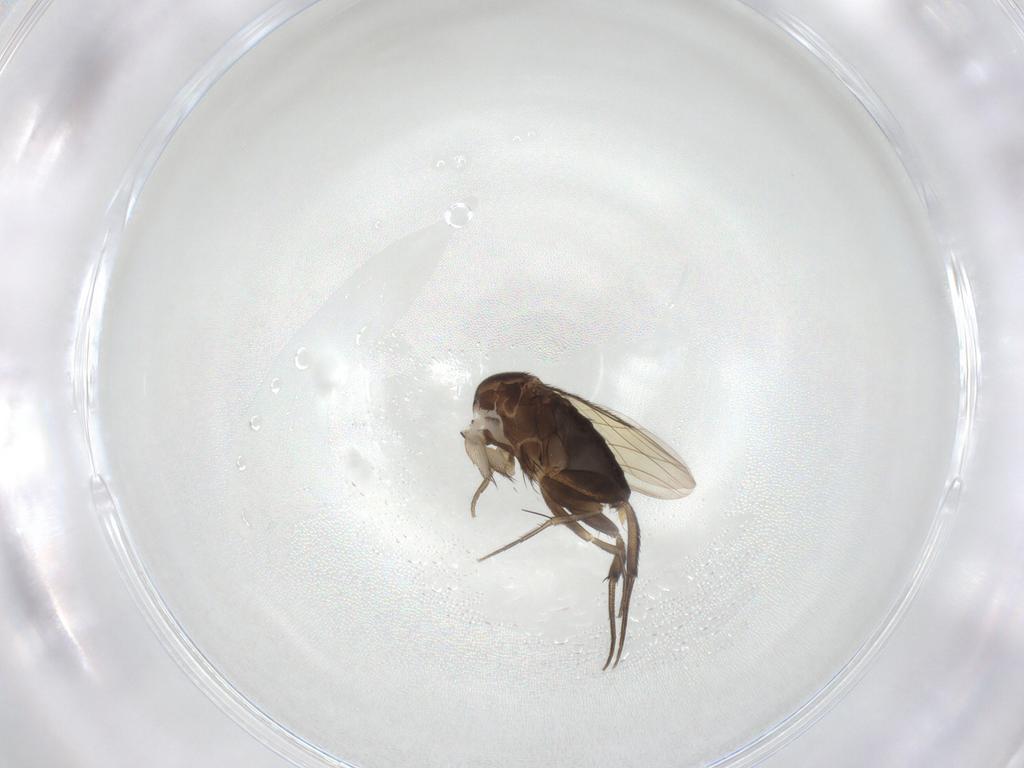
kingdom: Animalia
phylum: Arthropoda
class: Insecta
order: Diptera
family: Phoridae
